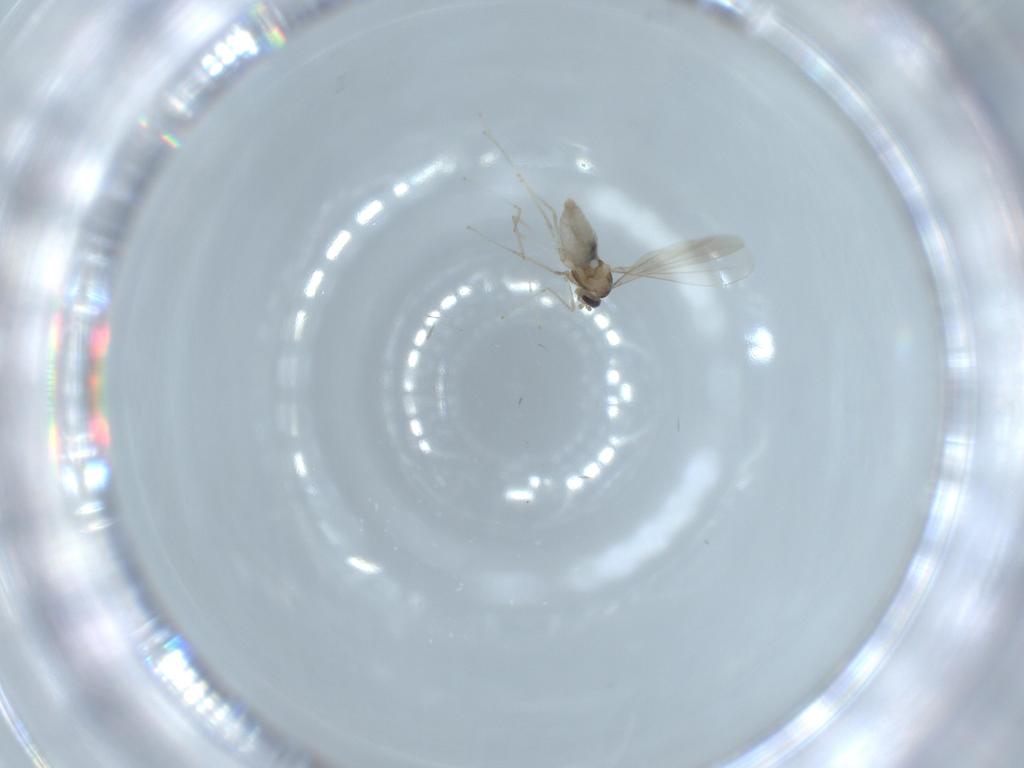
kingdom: Animalia
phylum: Arthropoda
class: Insecta
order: Diptera
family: Cecidomyiidae
